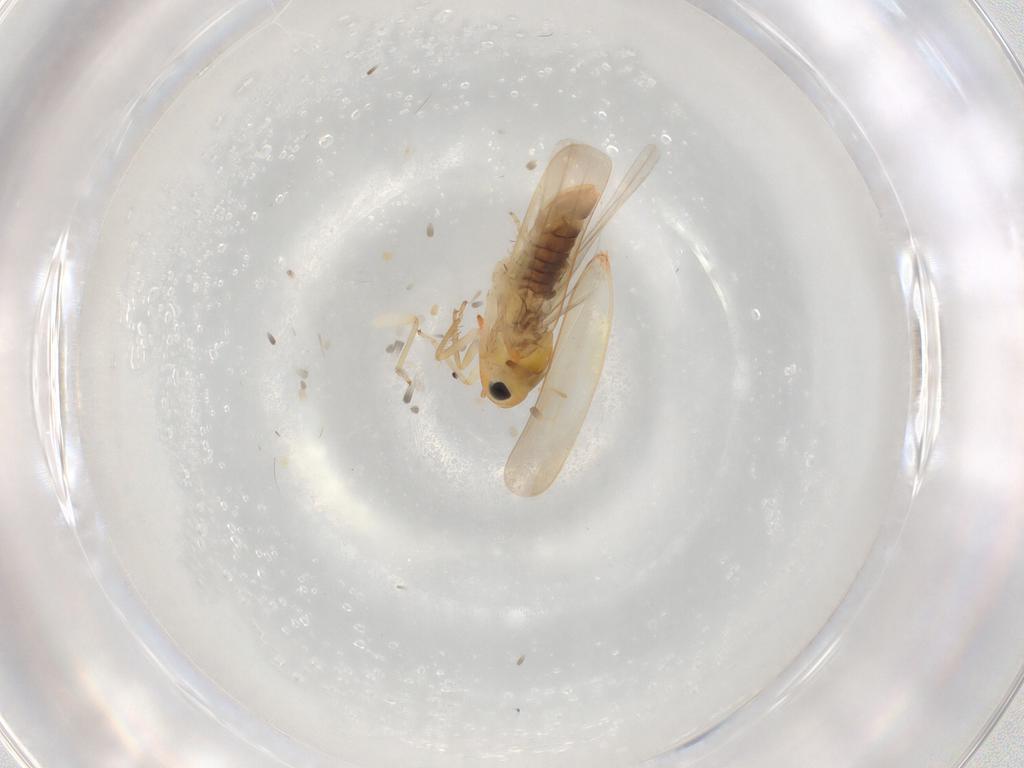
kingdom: Animalia
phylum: Arthropoda
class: Insecta
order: Hemiptera
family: Cicadellidae
